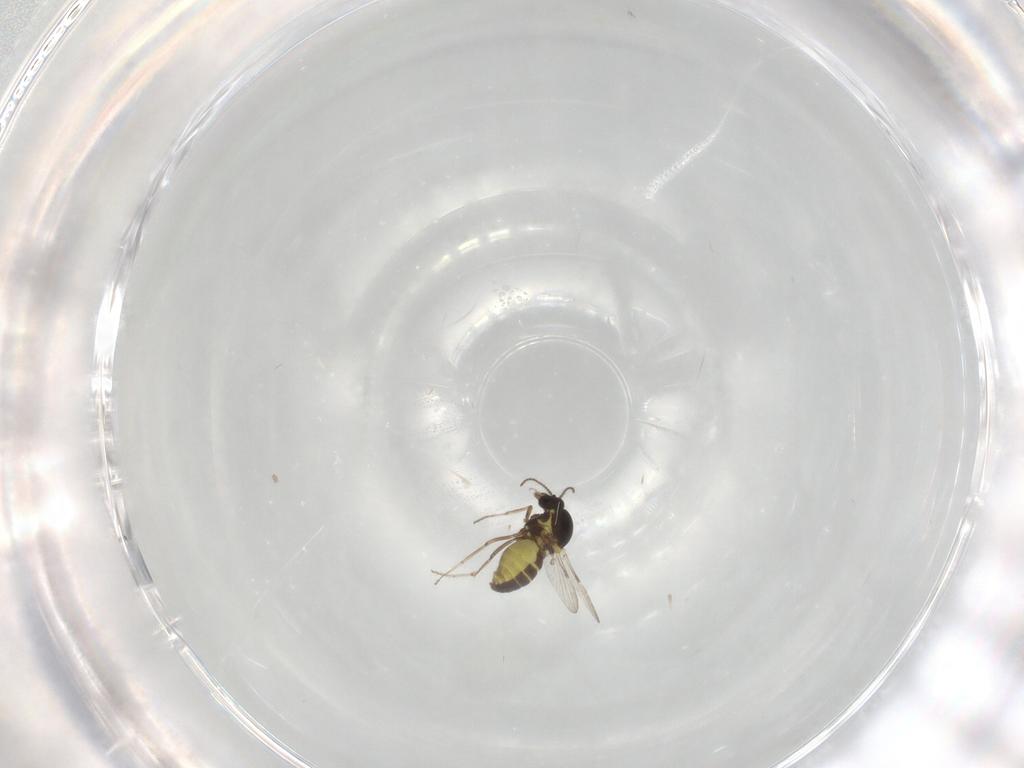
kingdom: Animalia
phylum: Arthropoda
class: Insecta
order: Diptera
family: Ceratopogonidae
